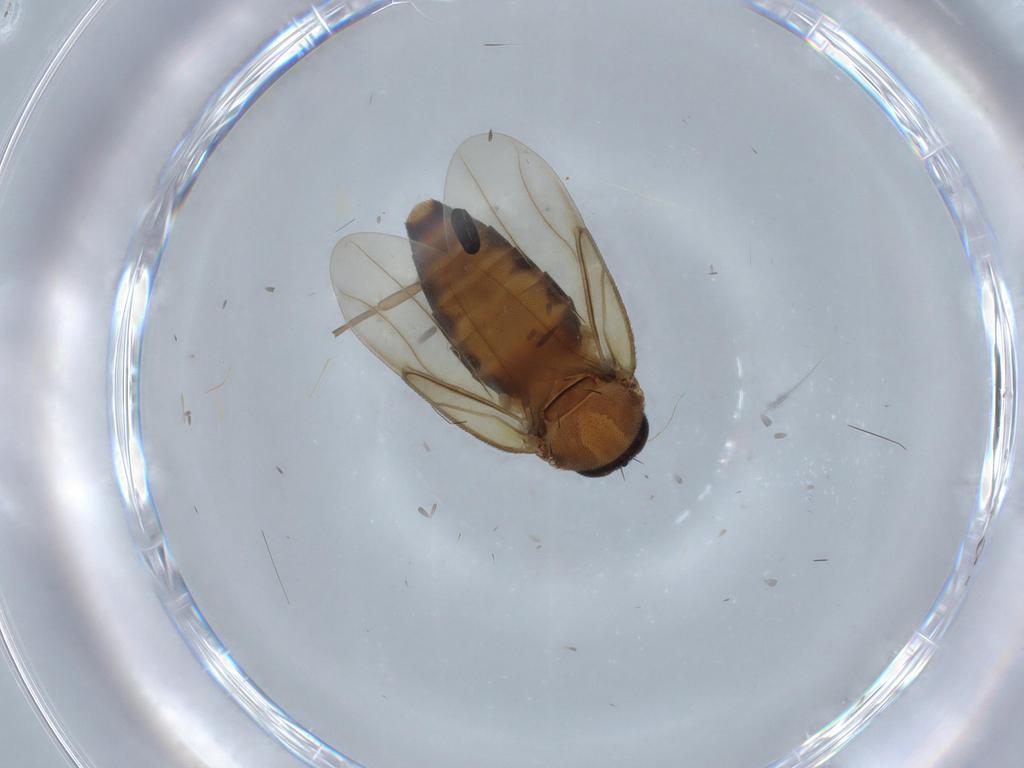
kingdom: Animalia
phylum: Arthropoda
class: Insecta
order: Diptera
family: Phoridae
